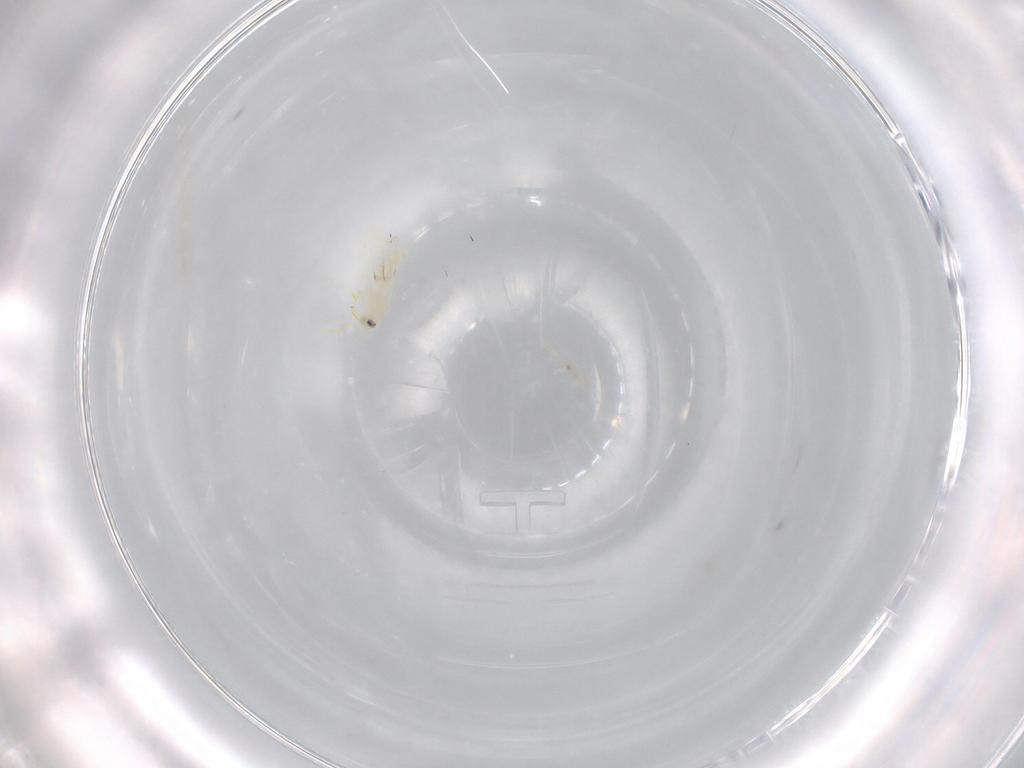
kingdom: Animalia
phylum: Arthropoda
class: Insecta
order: Hemiptera
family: Aleyrodidae
